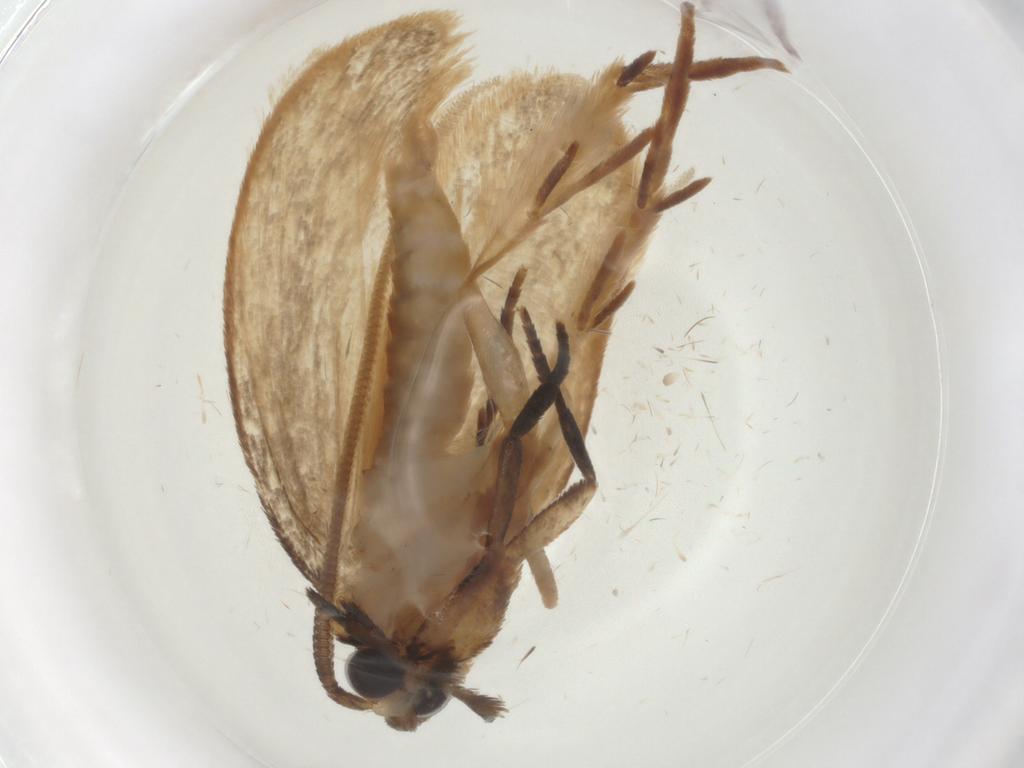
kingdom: Animalia
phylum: Arthropoda
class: Insecta
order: Lepidoptera
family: Tineidae
